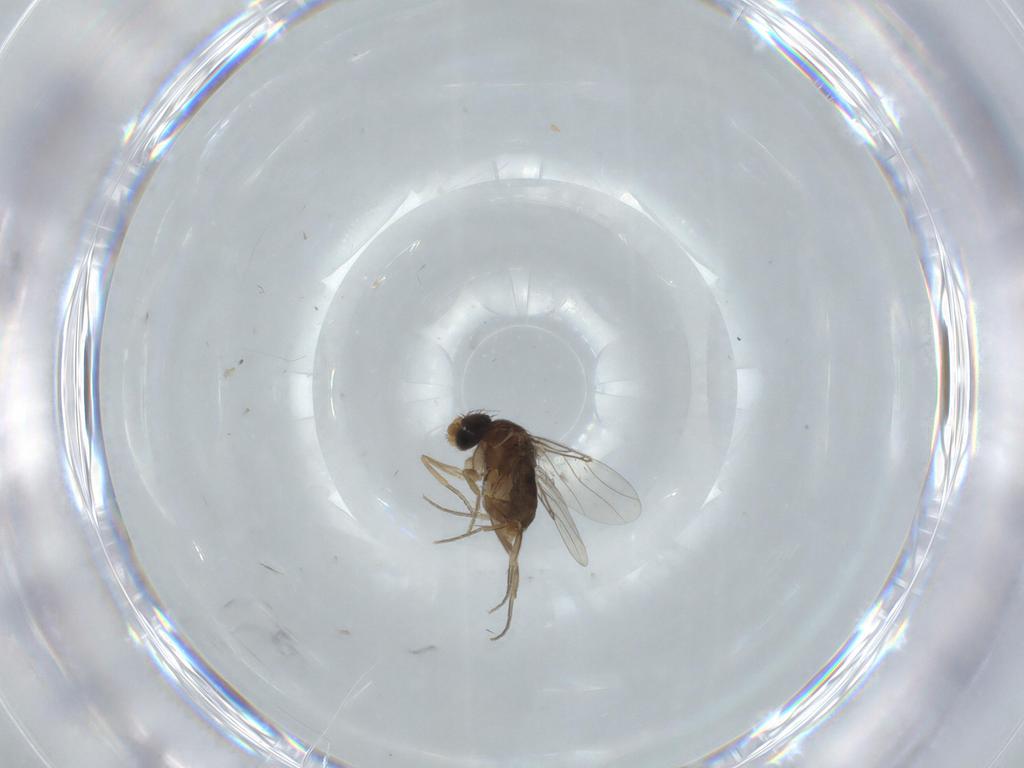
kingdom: Animalia
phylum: Arthropoda
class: Insecta
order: Diptera
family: Phoridae
